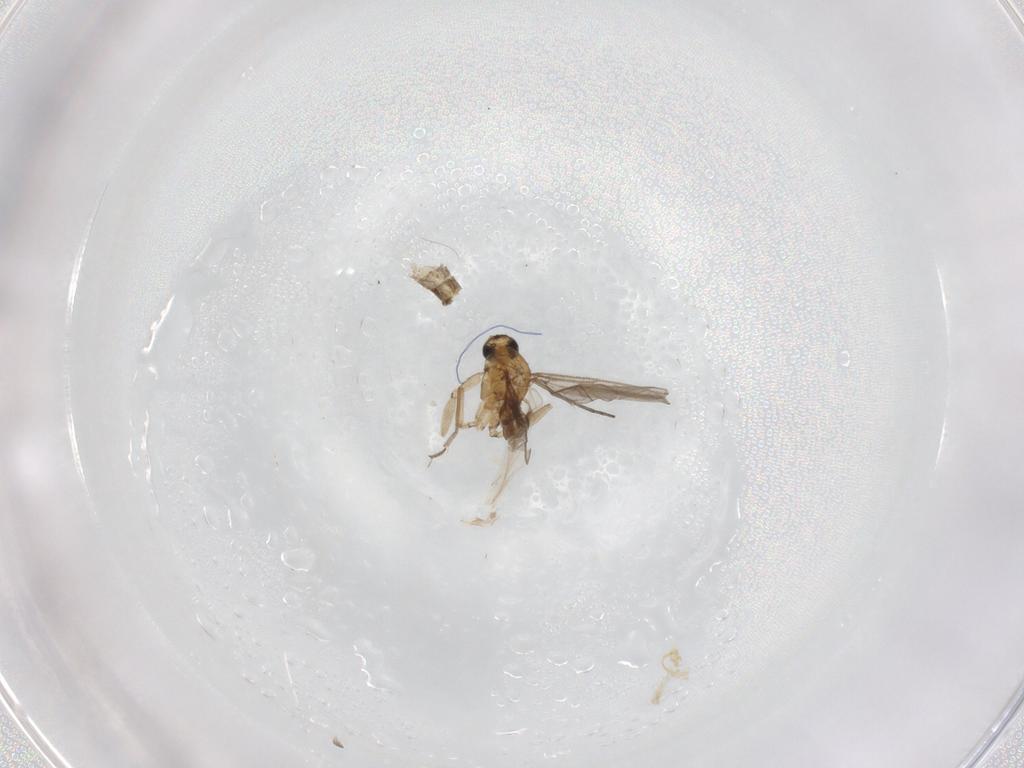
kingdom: Animalia
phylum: Arthropoda
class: Insecta
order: Diptera
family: Sciaridae
